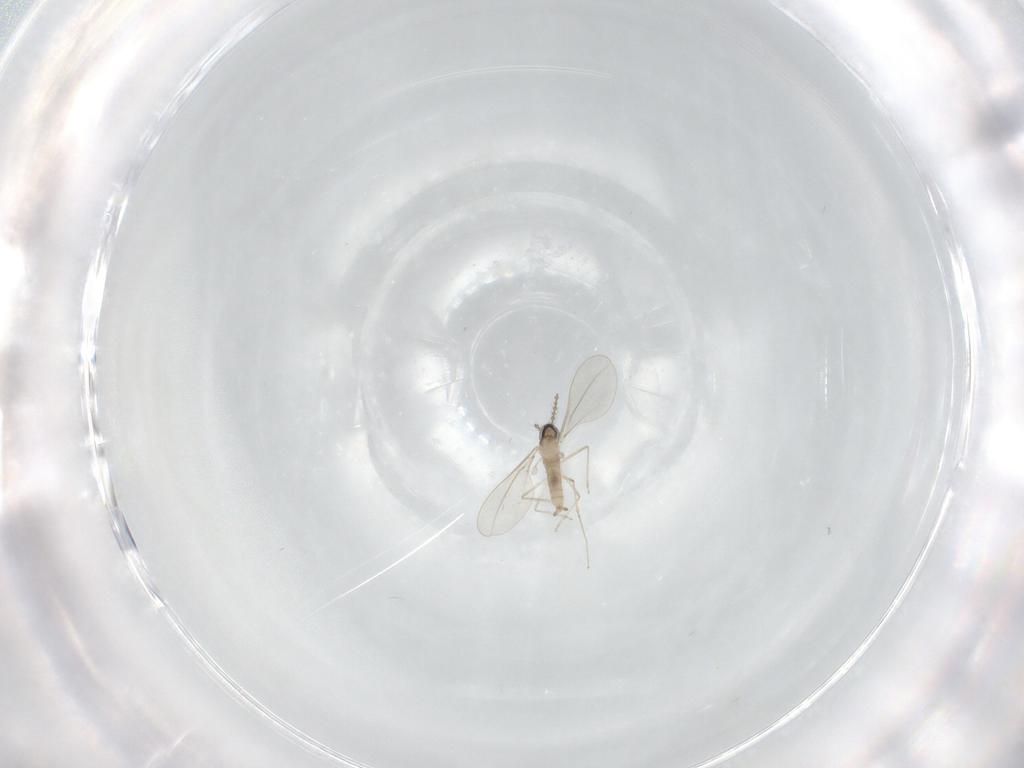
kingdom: Animalia
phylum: Arthropoda
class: Insecta
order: Diptera
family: Cecidomyiidae
